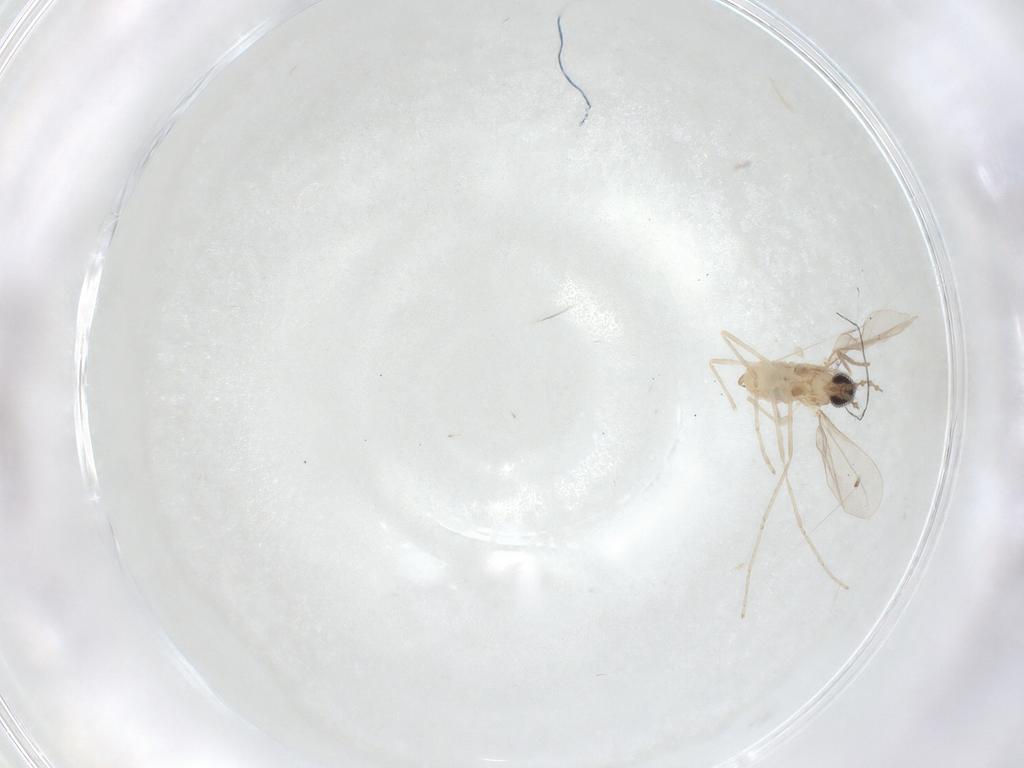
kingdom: Animalia
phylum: Arthropoda
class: Insecta
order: Diptera
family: Cecidomyiidae
